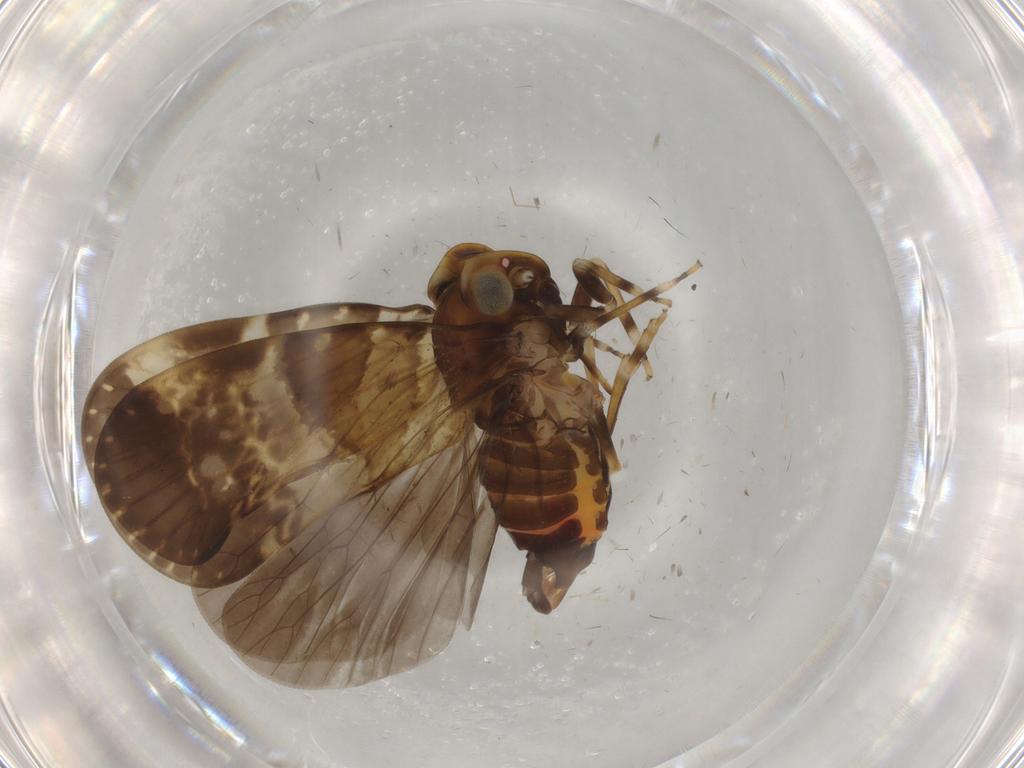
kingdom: Animalia
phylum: Arthropoda
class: Insecta
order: Hemiptera
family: Cixiidae
